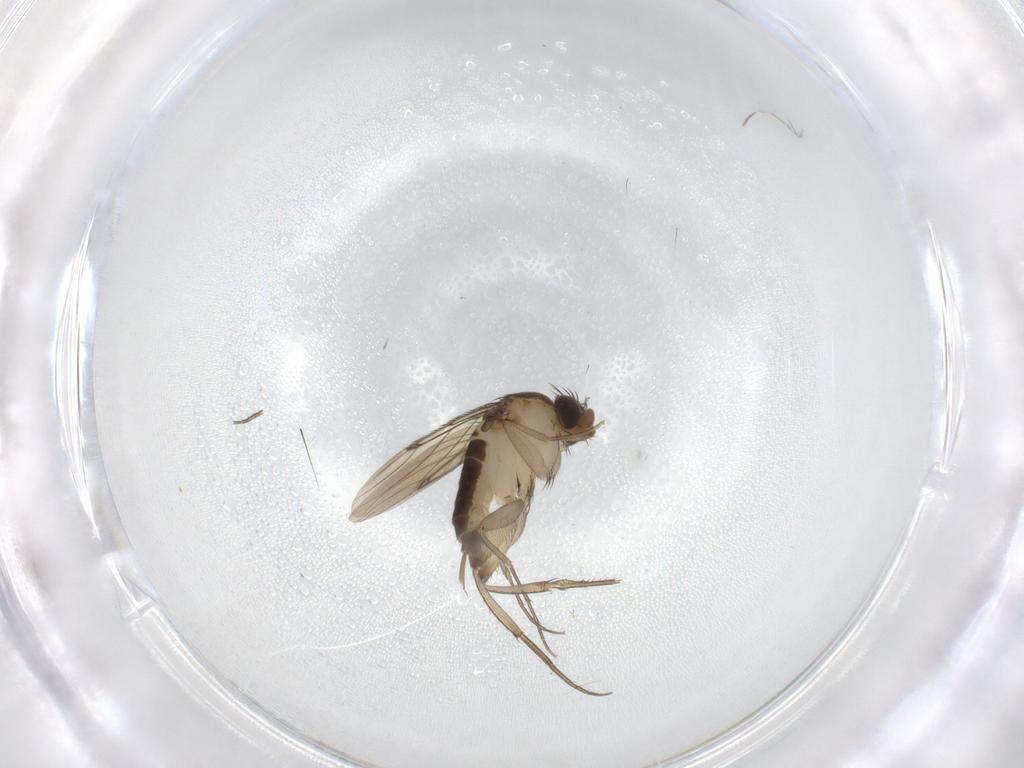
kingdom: Animalia
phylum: Arthropoda
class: Insecta
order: Diptera
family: Phoridae
